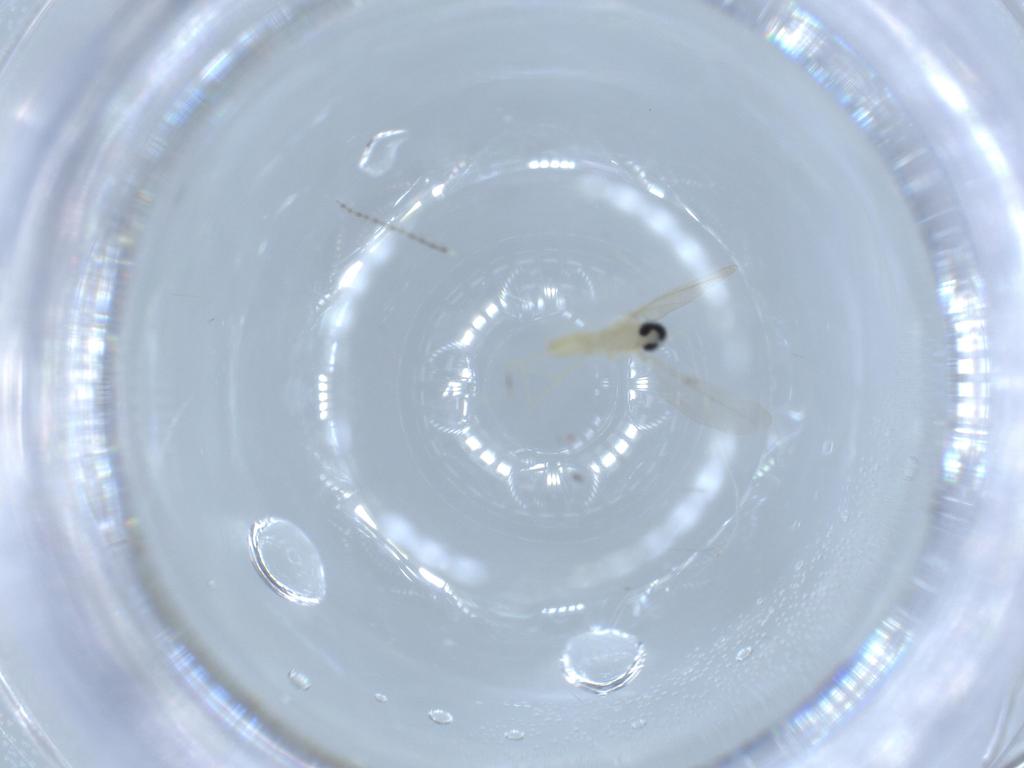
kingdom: Animalia
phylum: Arthropoda
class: Insecta
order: Diptera
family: Cecidomyiidae
